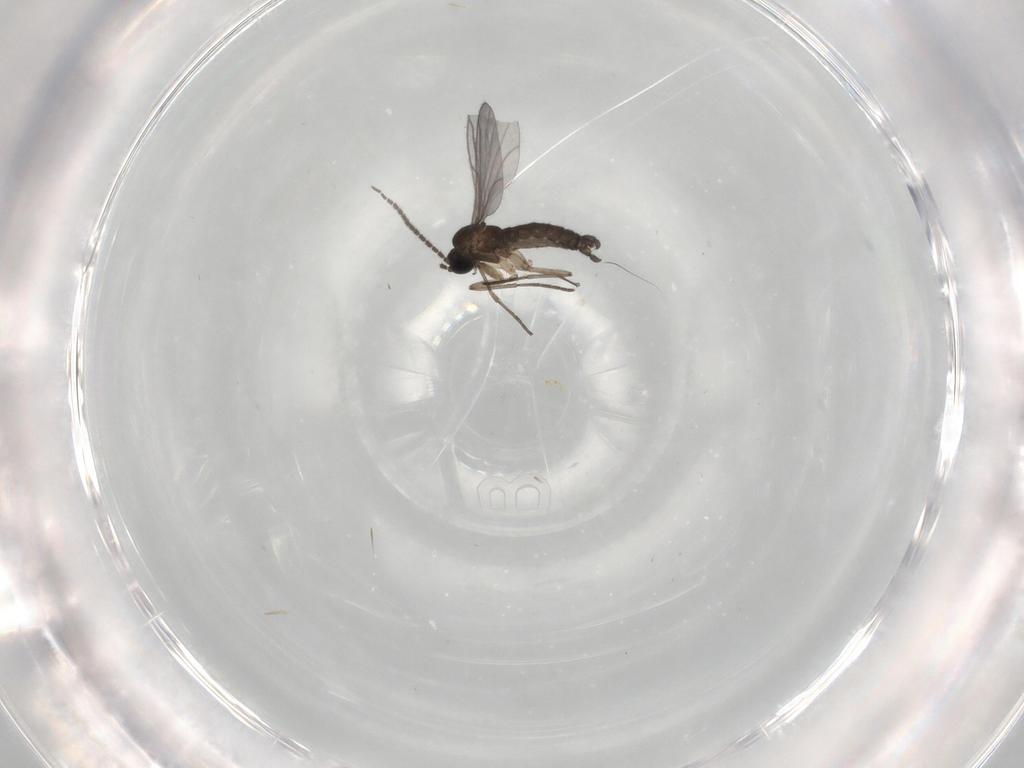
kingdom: Animalia
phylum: Arthropoda
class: Insecta
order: Diptera
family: Sciaridae
